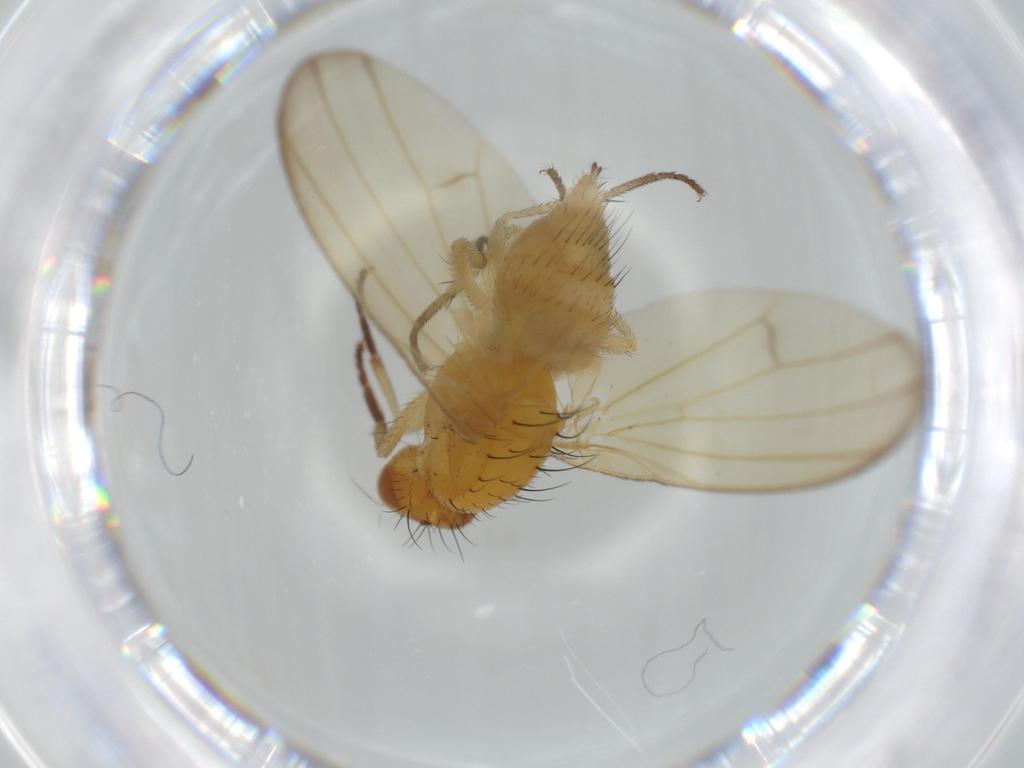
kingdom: Animalia
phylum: Arthropoda
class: Insecta
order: Diptera
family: Lauxaniidae
